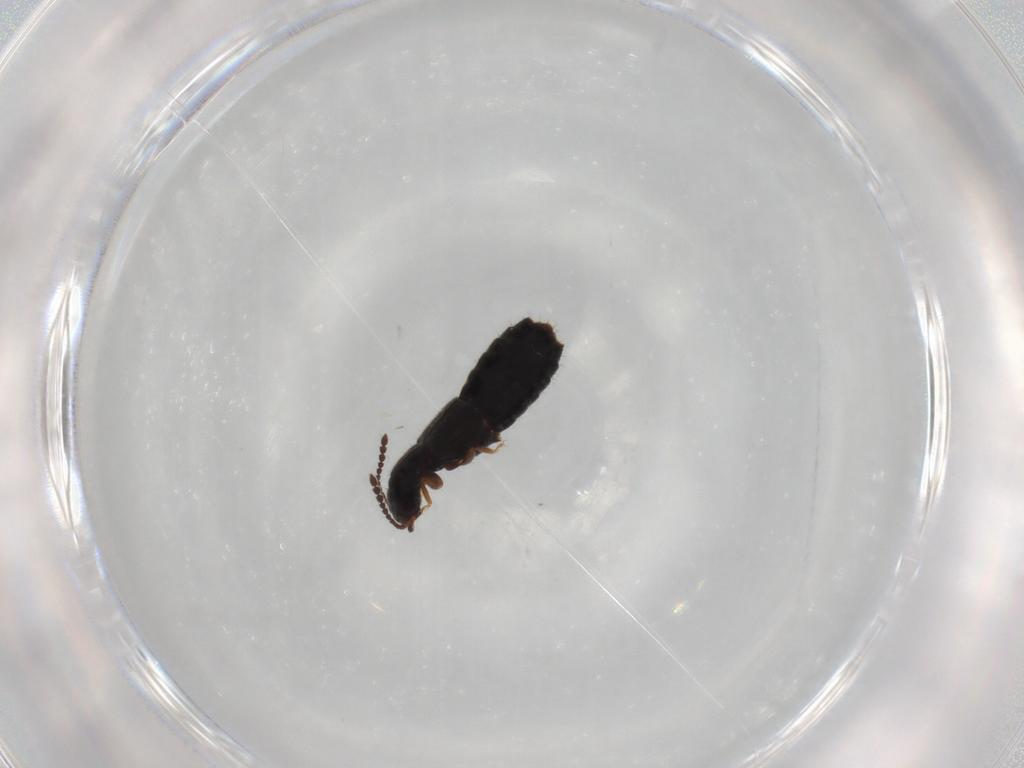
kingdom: Animalia
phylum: Arthropoda
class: Insecta
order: Coleoptera
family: Staphylinidae
